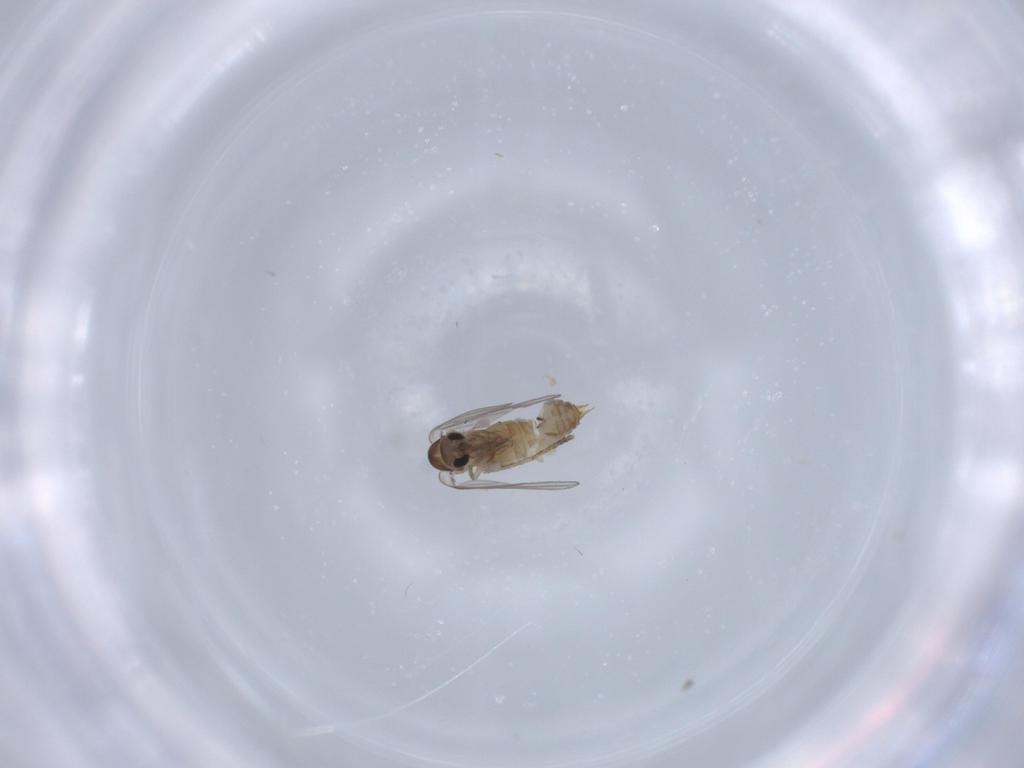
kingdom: Animalia
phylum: Arthropoda
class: Insecta
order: Diptera
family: Psychodidae
